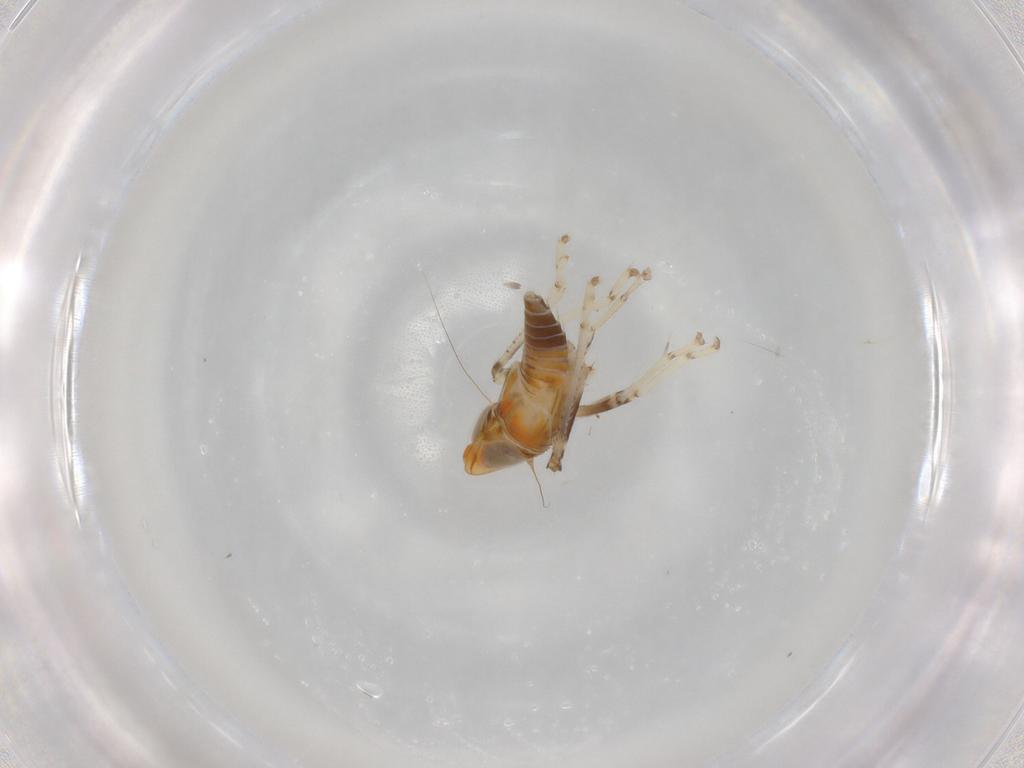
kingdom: Animalia
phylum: Arthropoda
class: Insecta
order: Hemiptera
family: Cicadellidae
